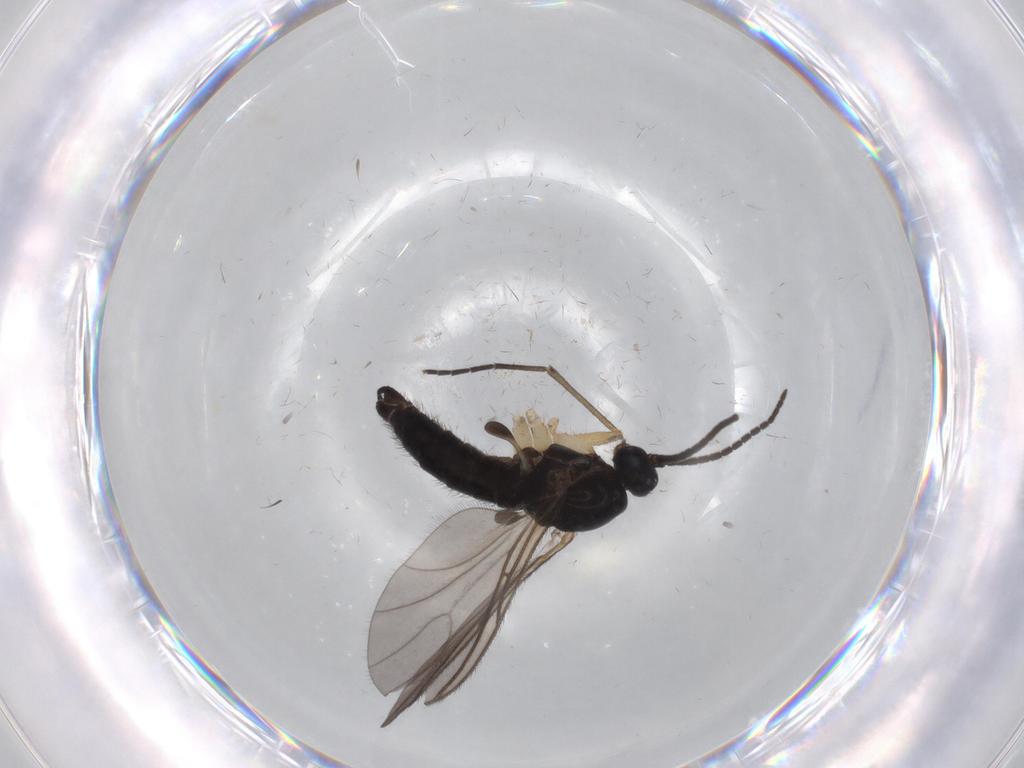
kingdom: Animalia
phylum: Arthropoda
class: Insecta
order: Diptera
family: Sciaridae
